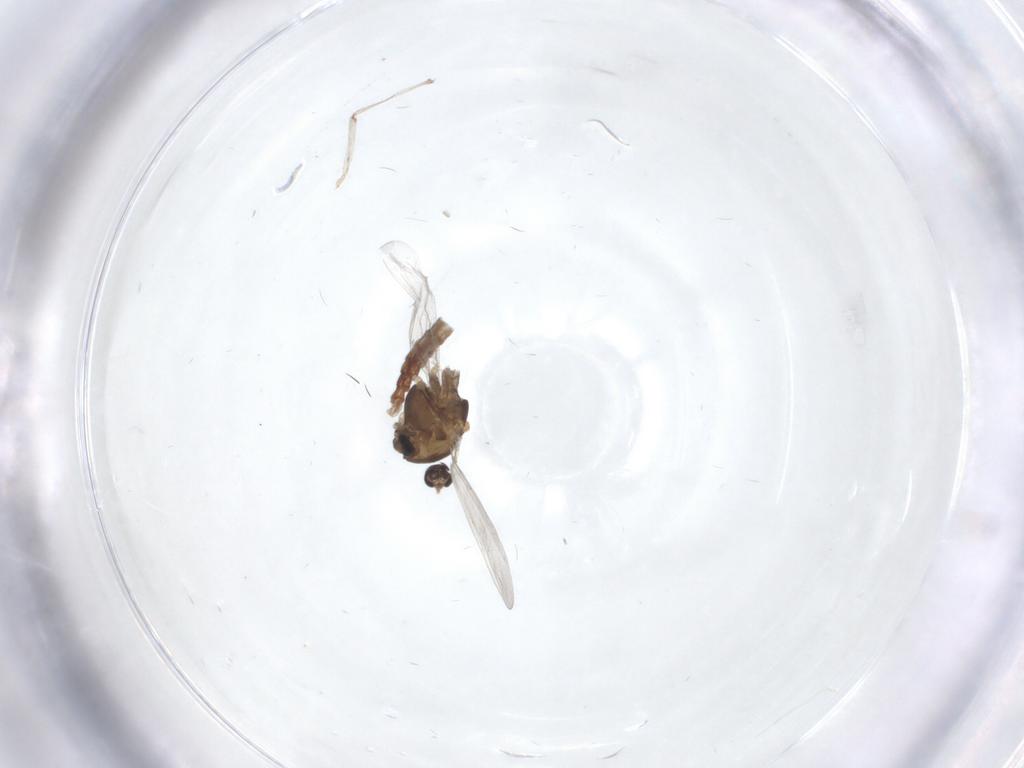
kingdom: Animalia
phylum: Arthropoda
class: Insecta
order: Diptera
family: Chironomidae
